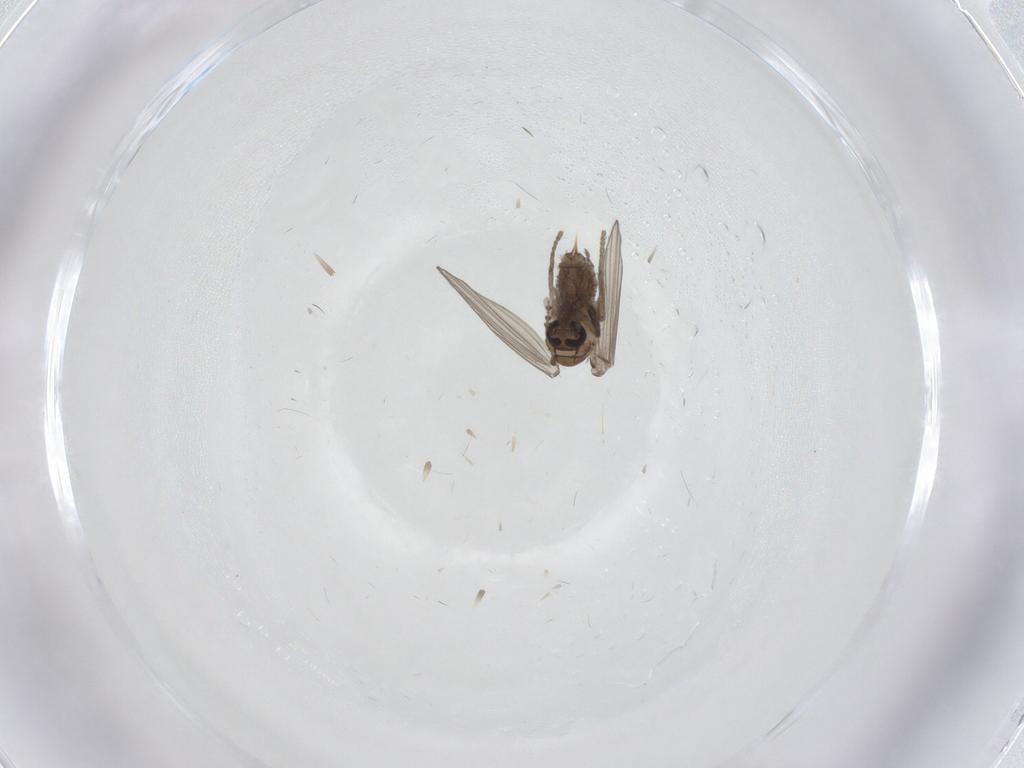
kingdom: Animalia
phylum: Arthropoda
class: Insecta
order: Diptera
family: Psychodidae
